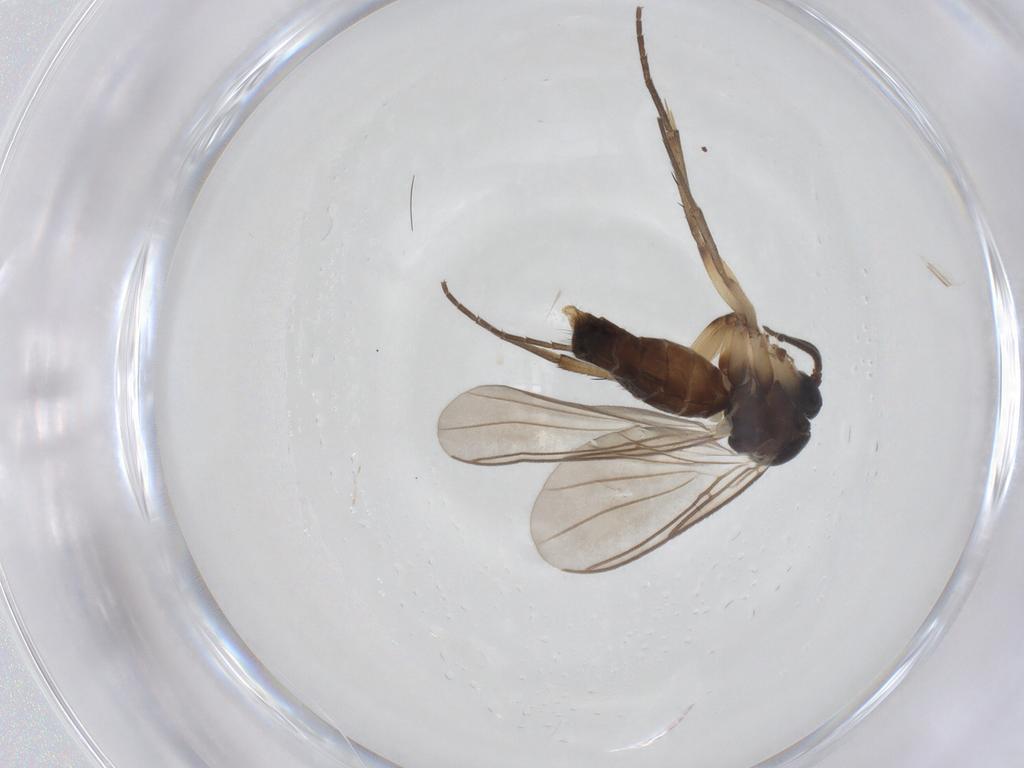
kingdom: Animalia
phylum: Arthropoda
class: Insecta
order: Diptera
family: Mycetophilidae
